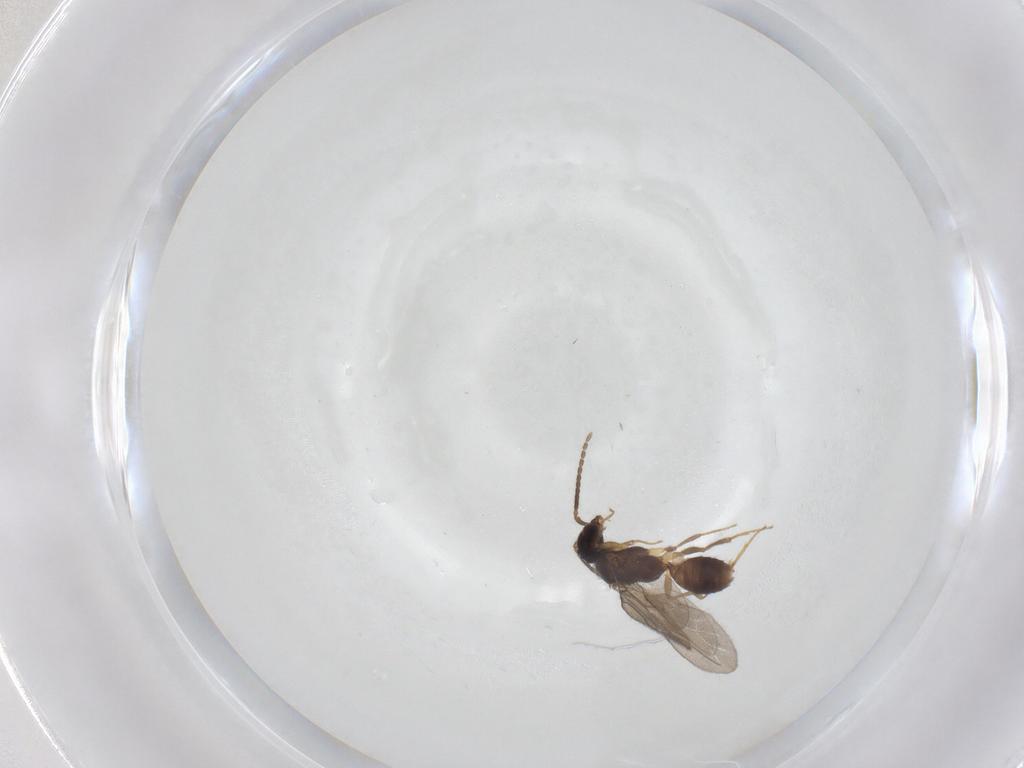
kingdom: Animalia
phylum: Arthropoda
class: Insecta
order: Hymenoptera
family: Bethylidae
